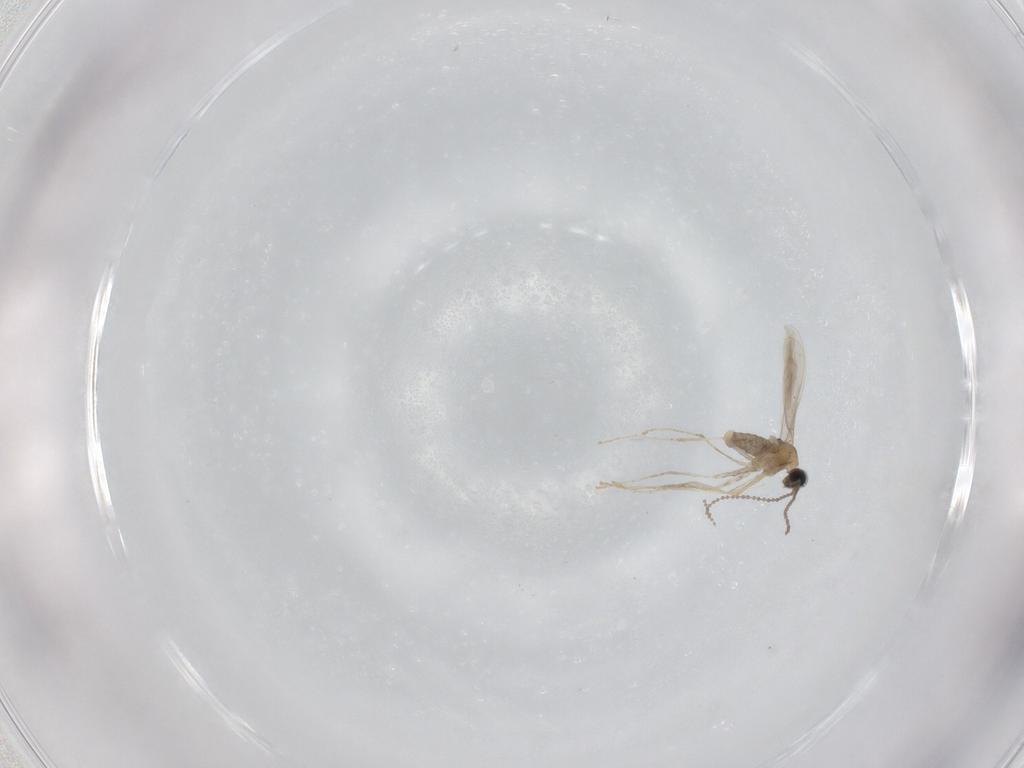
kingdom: Animalia
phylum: Arthropoda
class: Insecta
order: Diptera
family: Cecidomyiidae
